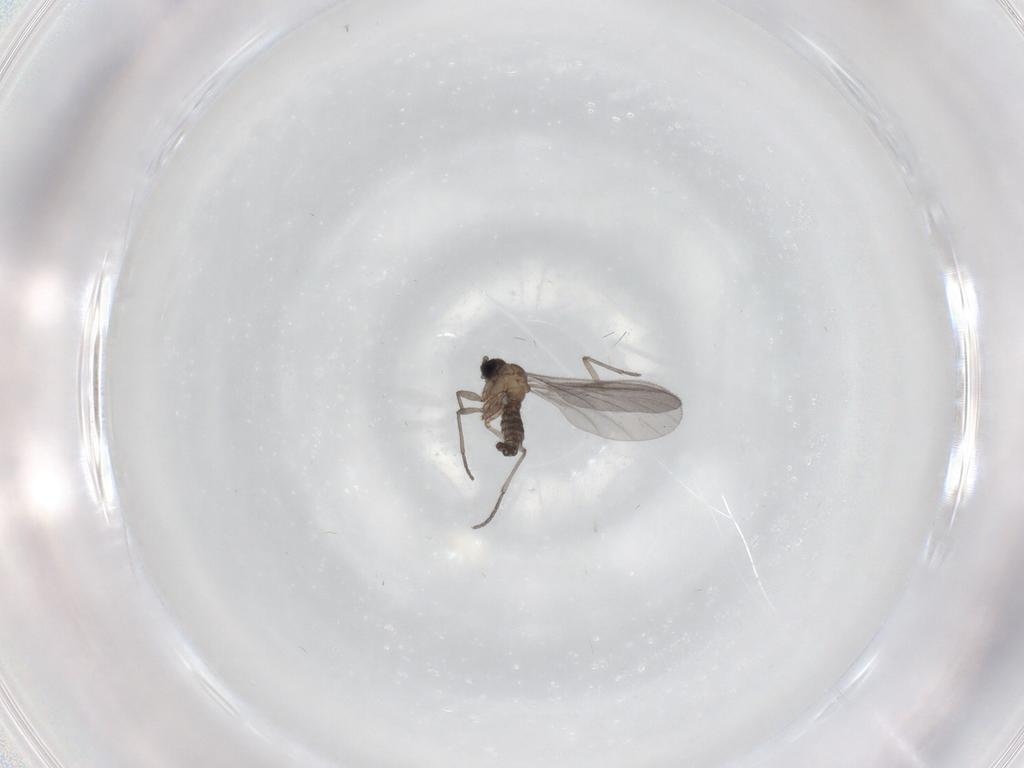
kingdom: Animalia
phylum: Arthropoda
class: Insecta
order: Diptera
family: Sciaridae
